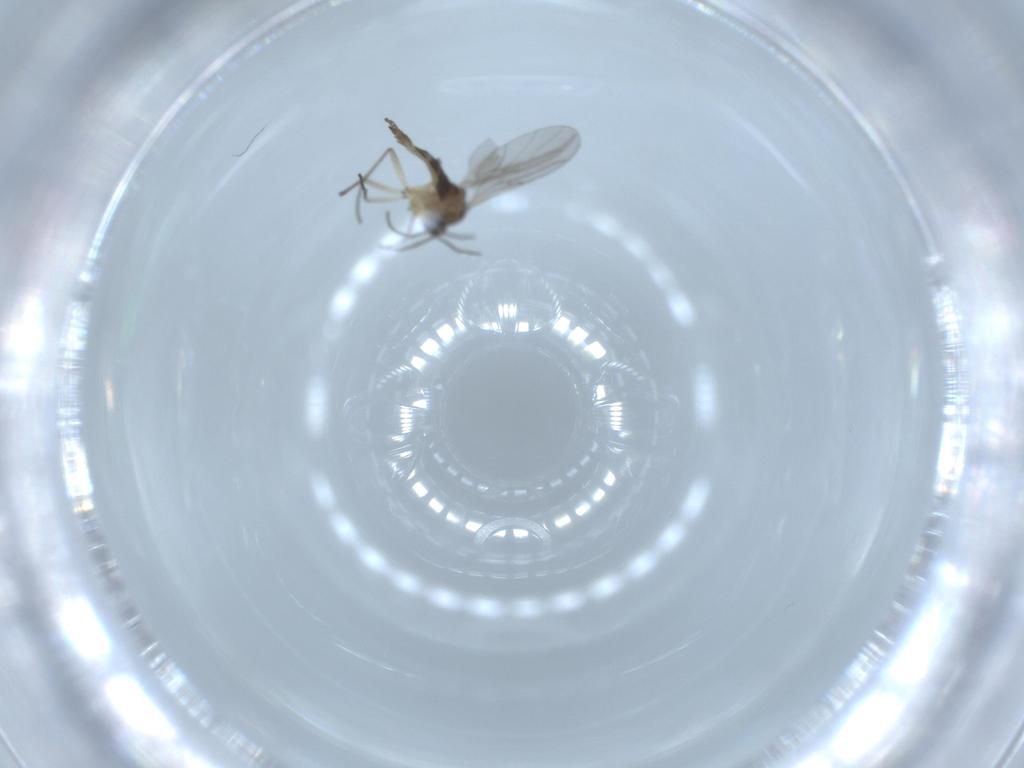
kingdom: Animalia
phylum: Arthropoda
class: Insecta
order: Diptera
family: Sciaridae
